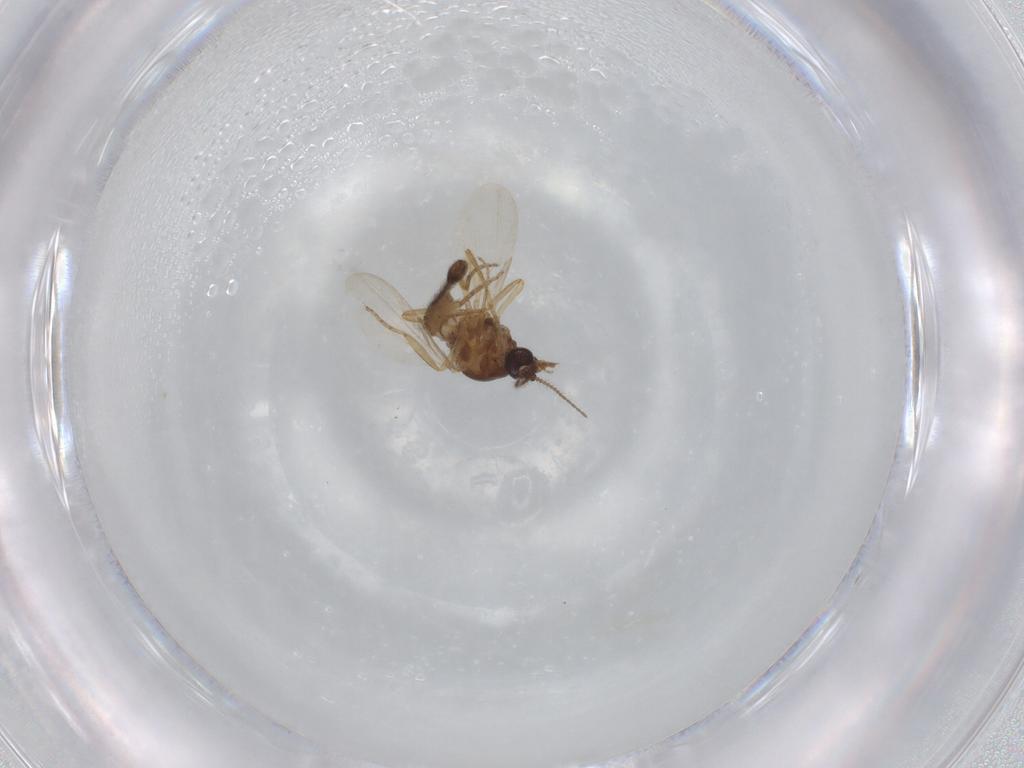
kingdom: Animalia
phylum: Arthropoda
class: Insecta
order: Diptera
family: Ceratopogonidae
